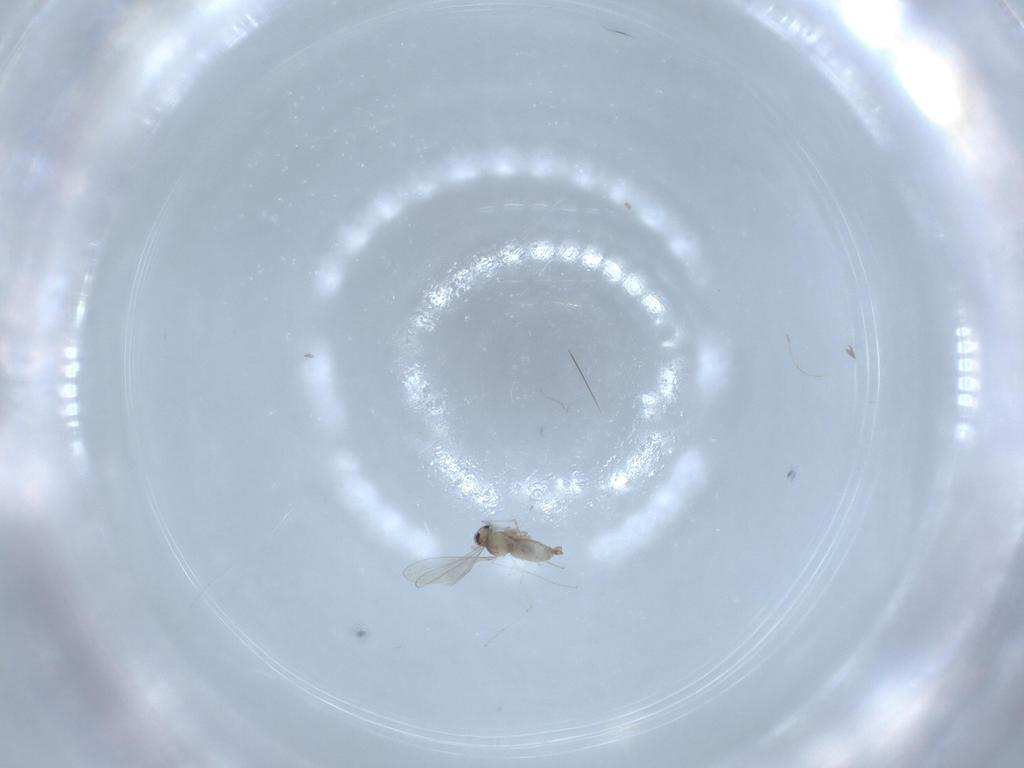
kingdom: Animalia
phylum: Arthropoda
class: Insecta
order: Diptera
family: Cecidomyiidae
